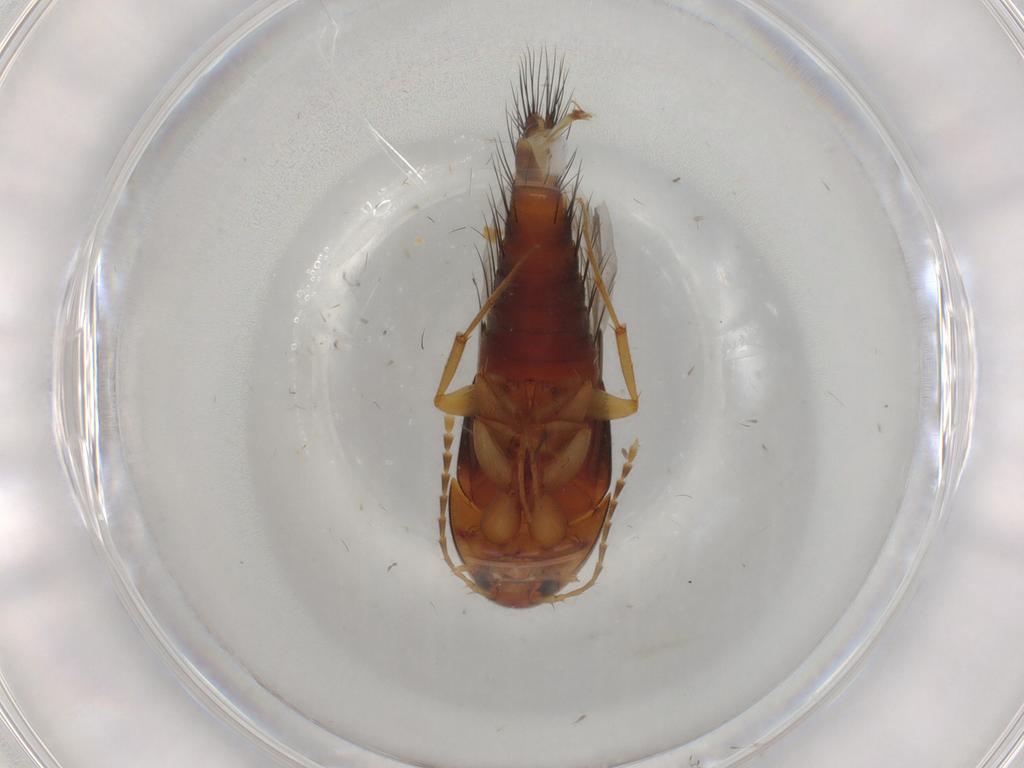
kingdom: Animalia
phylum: Arthropoda
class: Insecta
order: Coleoptera
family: Staphylinidae
